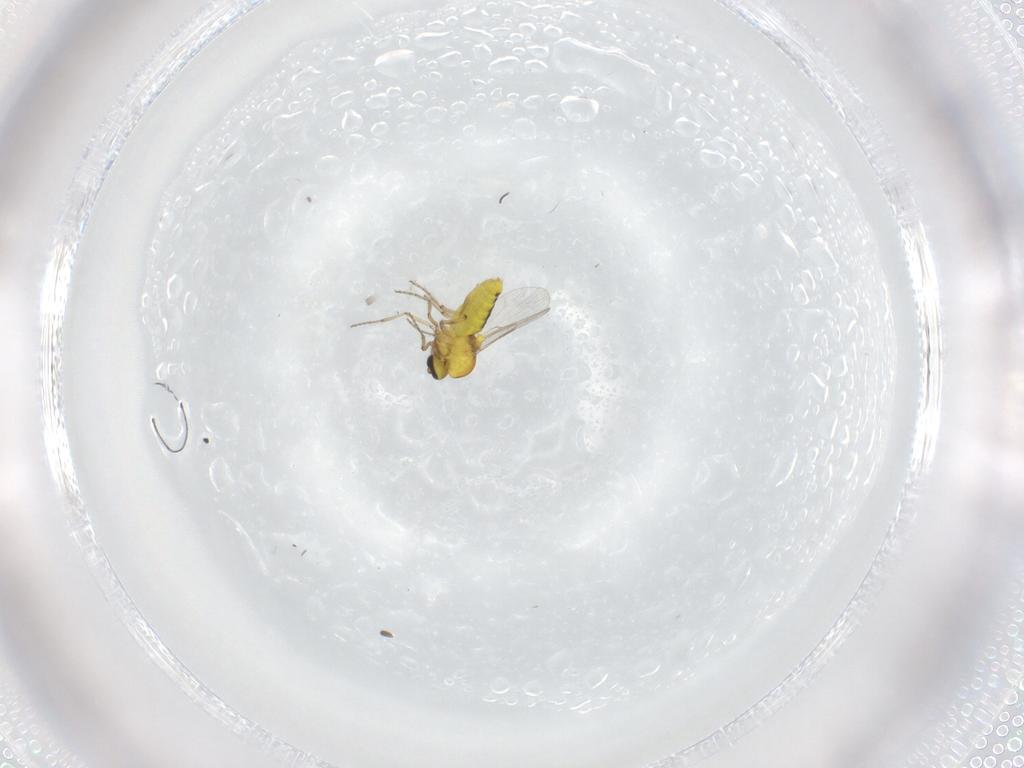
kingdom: Animalia
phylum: Arthropoda
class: Insecta
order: Diptera
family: Ceratopogonidae
